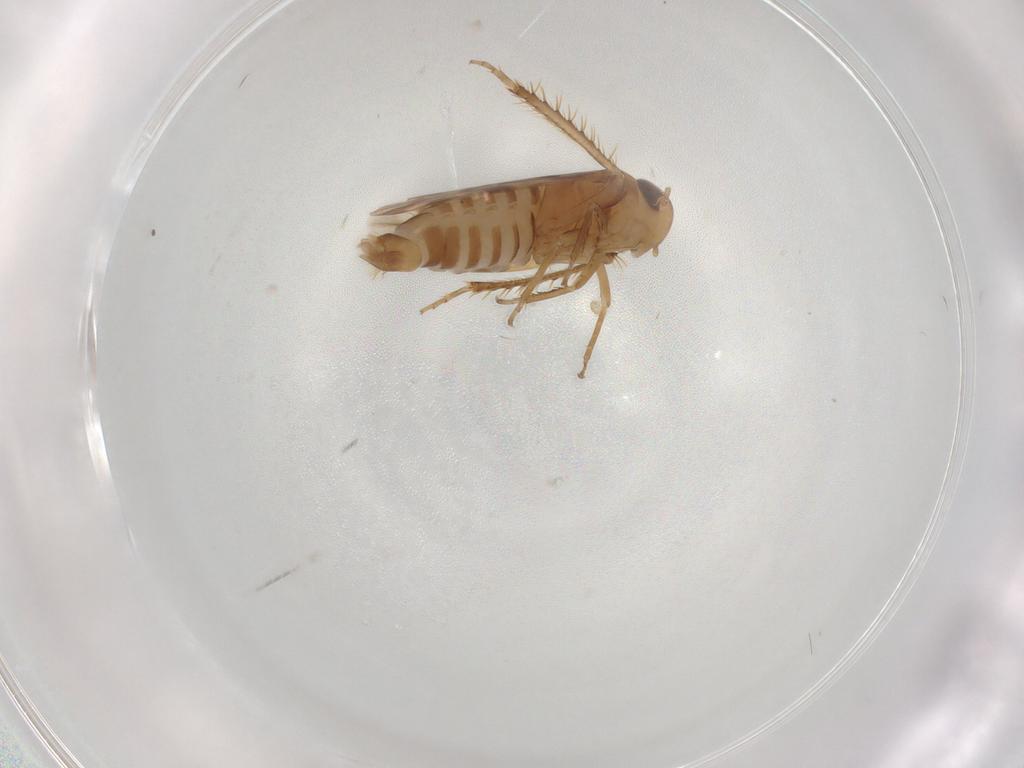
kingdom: Animalia
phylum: Arthropoda
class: Insecta
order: Hemiptera
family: Cicadellidae
